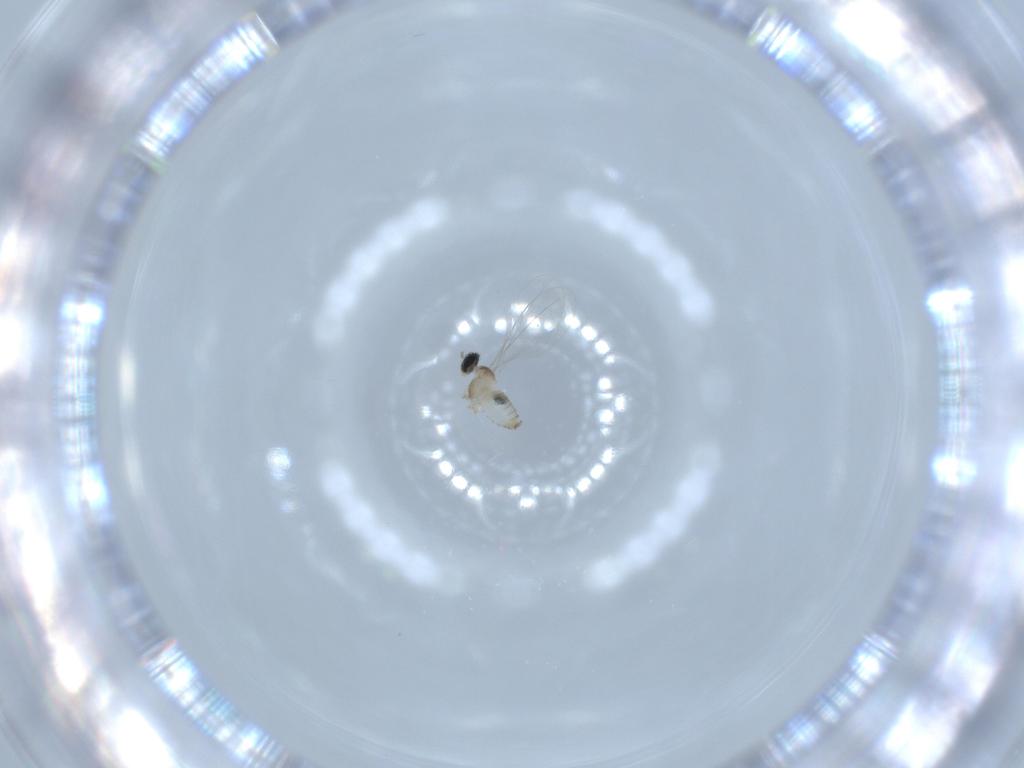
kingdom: Animalia
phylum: Arthropoda
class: Insecta
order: Diptera
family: Cecidomyiidae
